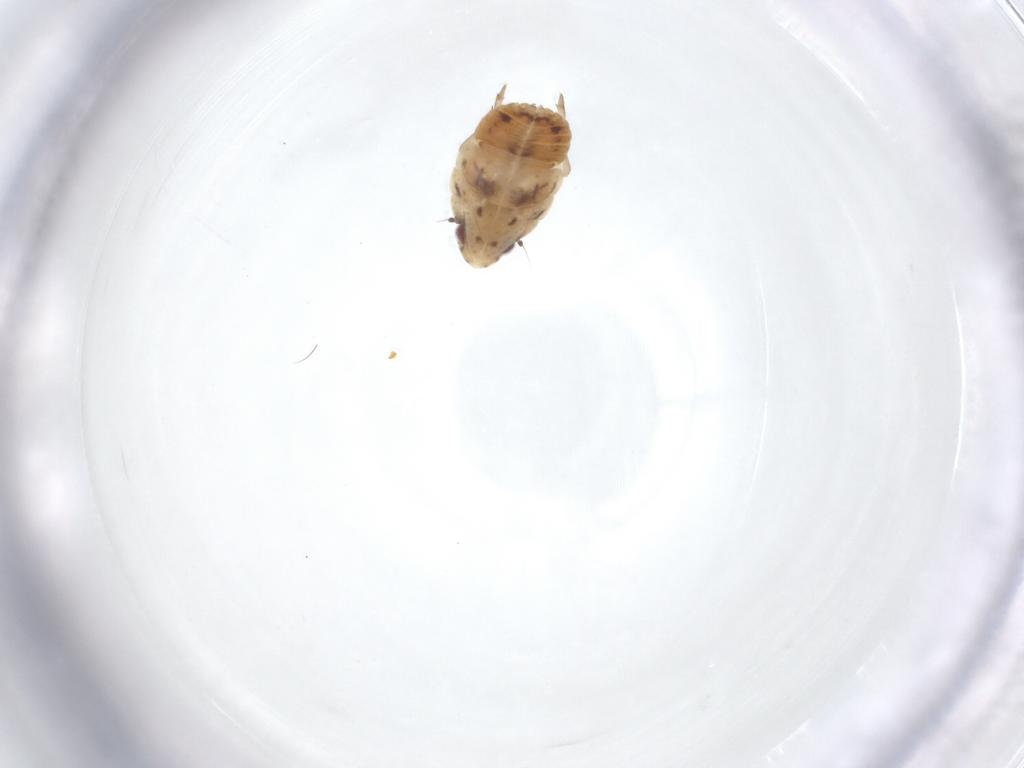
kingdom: Animalia
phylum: Arthropoda
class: Insecta
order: Hemiptera
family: Flatidae
